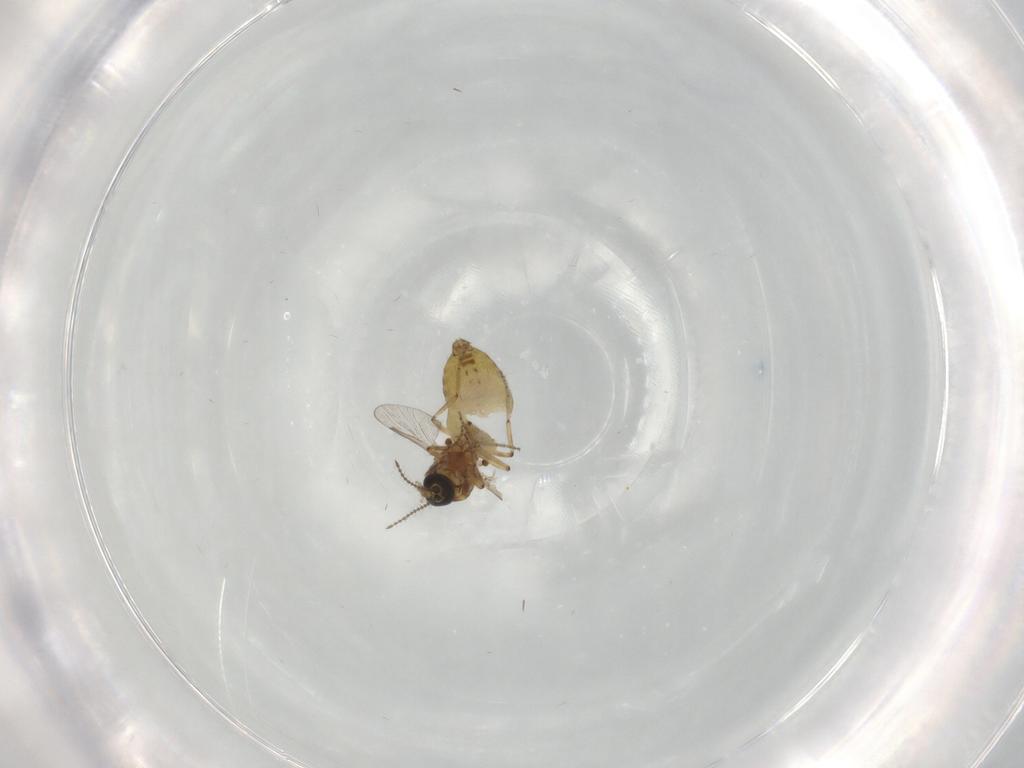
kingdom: Animalia
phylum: Arthropoda
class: Insecta
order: Diptera
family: Ceratopogonidae
